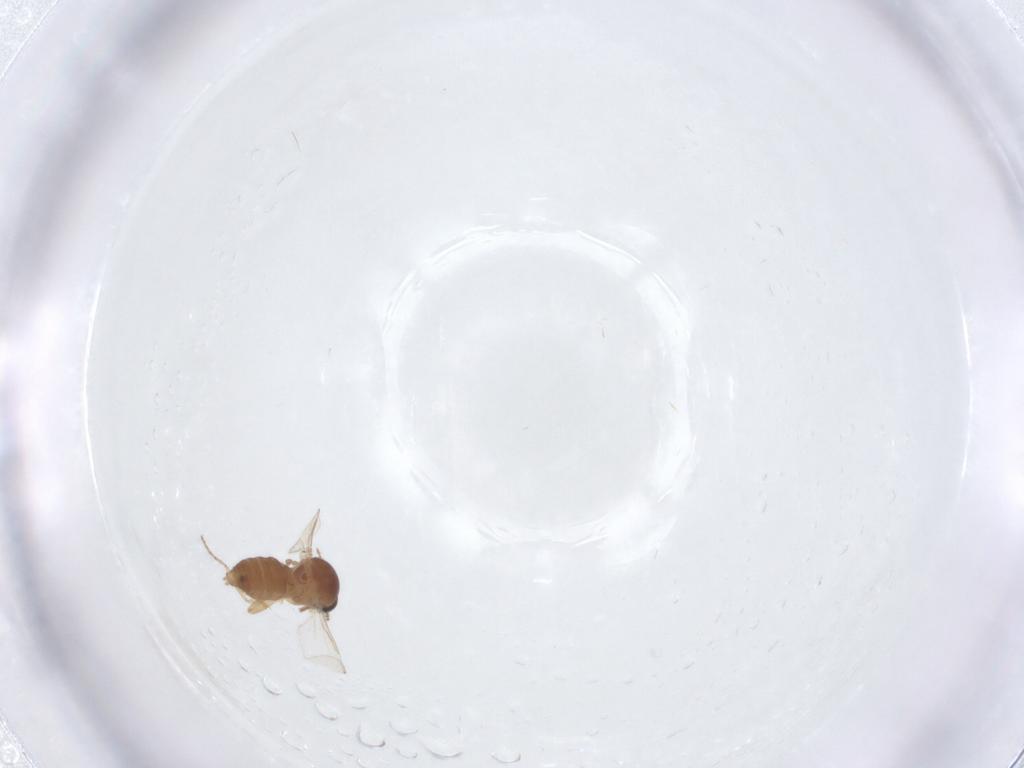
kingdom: Animalia
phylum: Arthropoda
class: Insecta
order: Diptera
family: Ceratopogonidae
